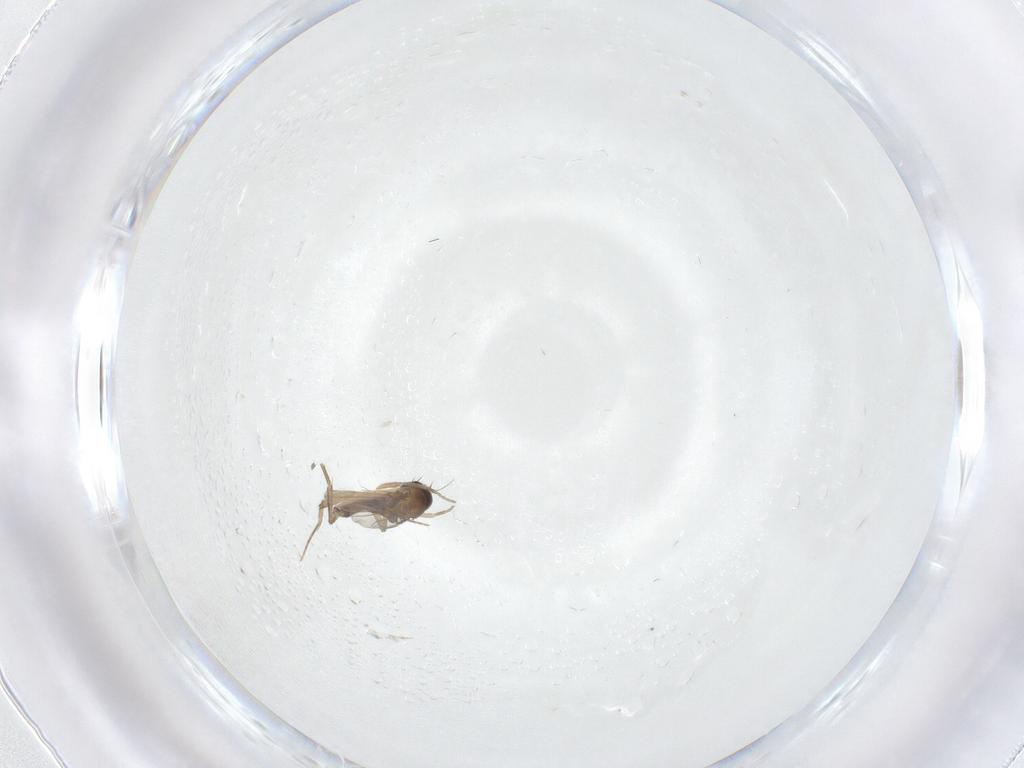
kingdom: Animalia
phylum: Arthropoda
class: Insecta
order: Diptera
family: Phoridae
